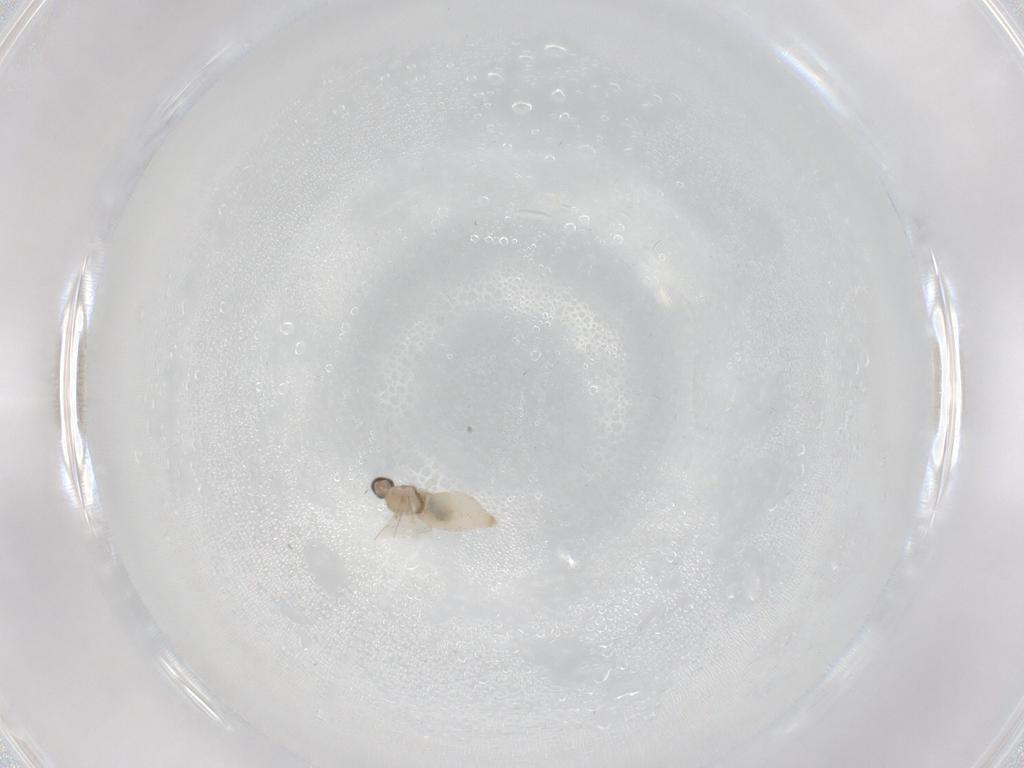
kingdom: Animalia
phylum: Arthropoda
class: Insecta
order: Diptera
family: Cecidomyiidae
